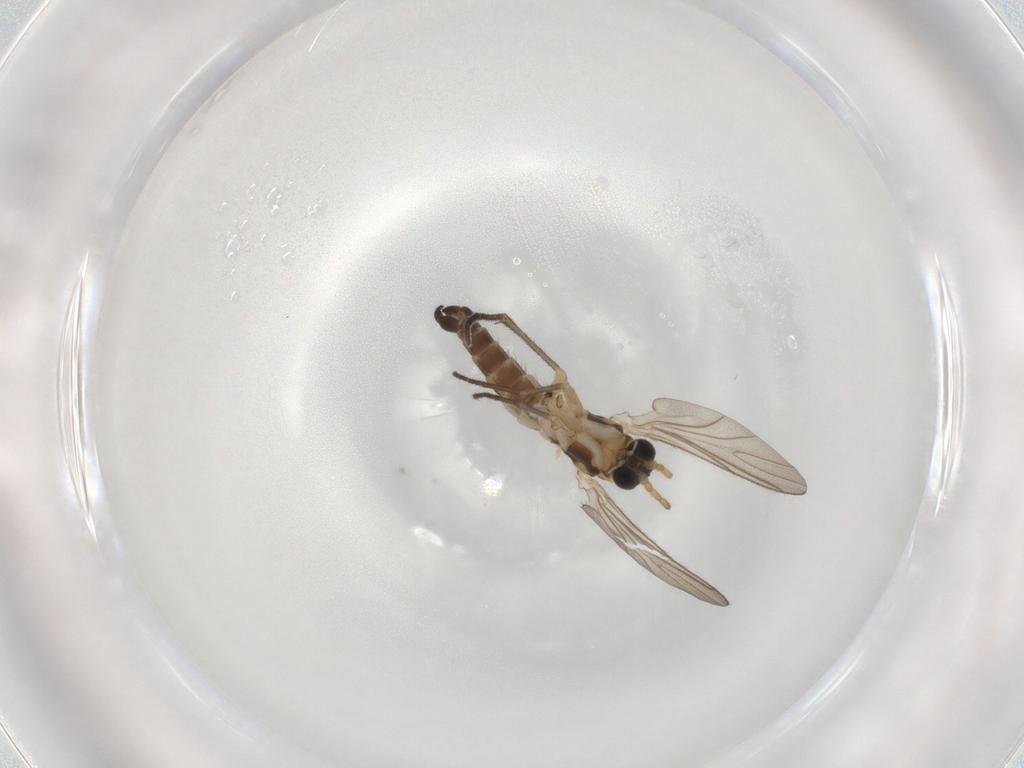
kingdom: Animalia
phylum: Arthropoda
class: Insecta
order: Diptera
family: Sciaridae
